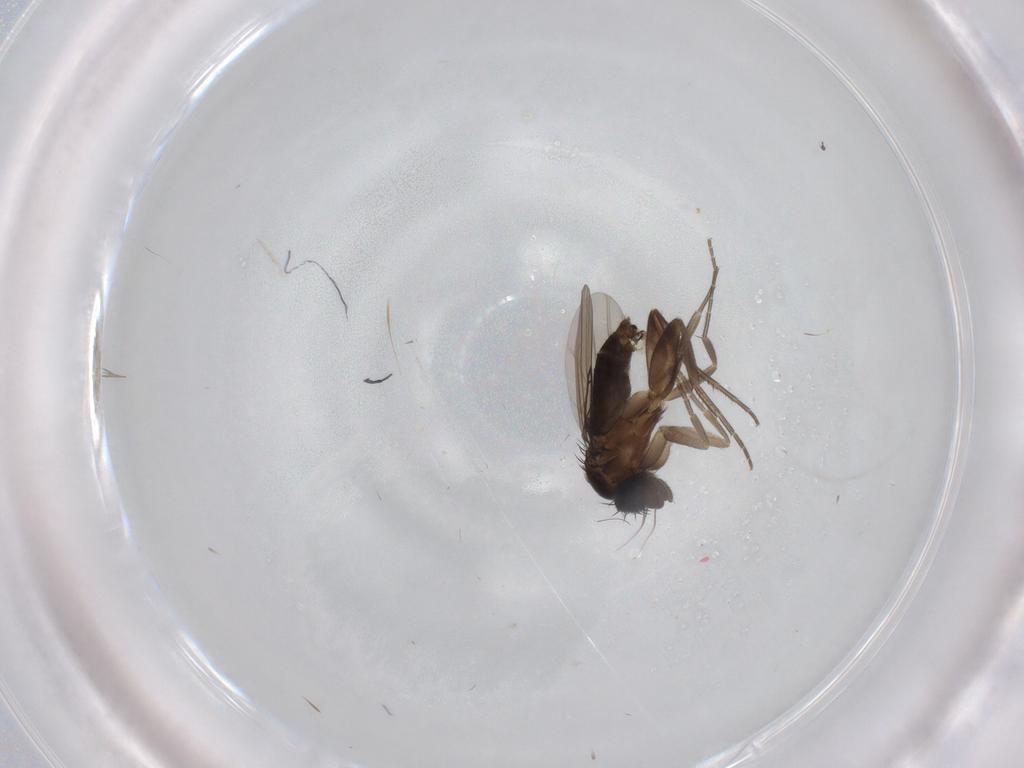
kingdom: Animalia
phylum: Arthropoda
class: Insecta
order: Diptera
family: Phoridae
